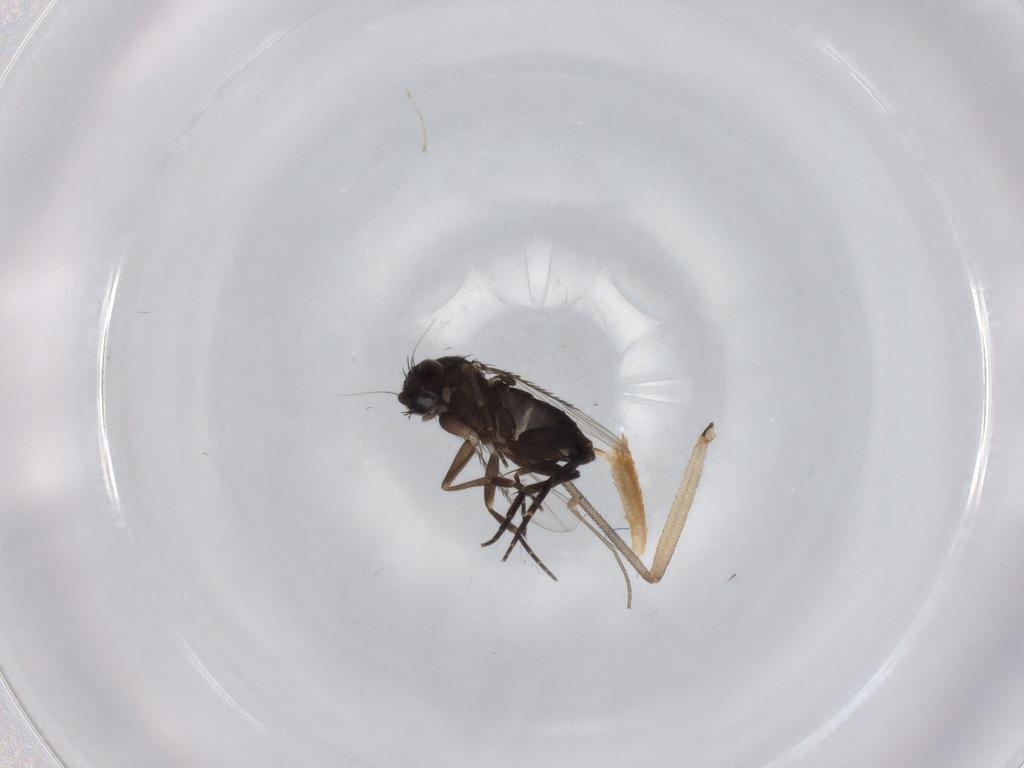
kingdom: Animalia
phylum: Arthropoda
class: Insecta
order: Diptera
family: Sciaridae
